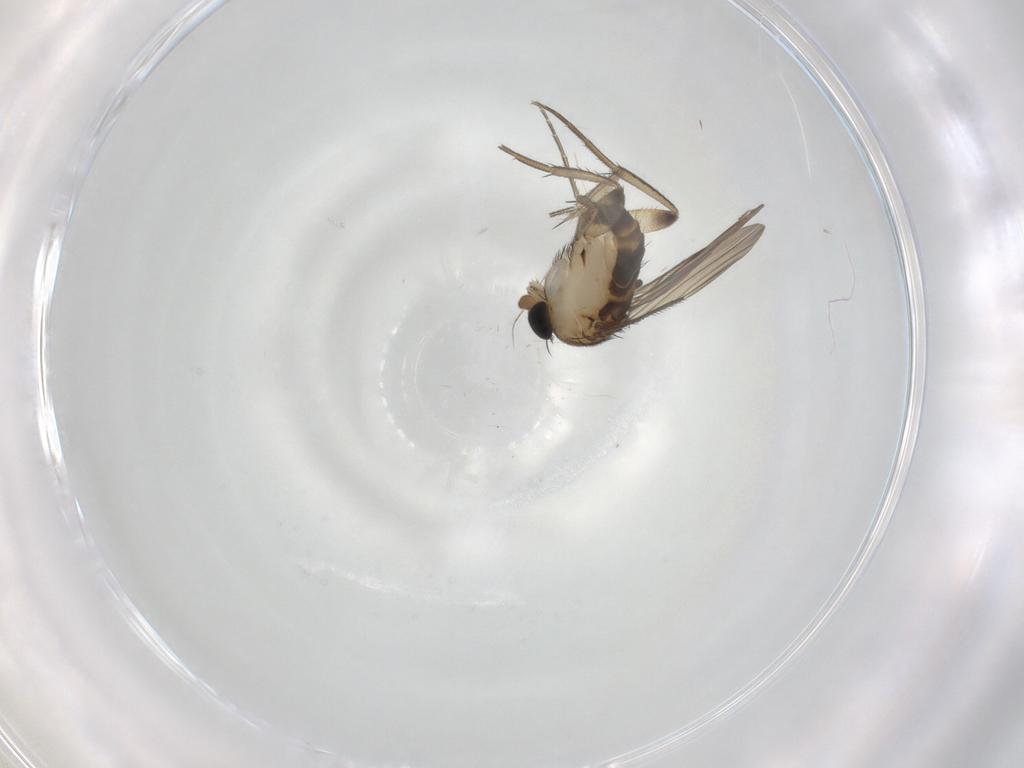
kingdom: Animalia
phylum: Arthropoda
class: Insecta
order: Diptera
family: Phoridae
